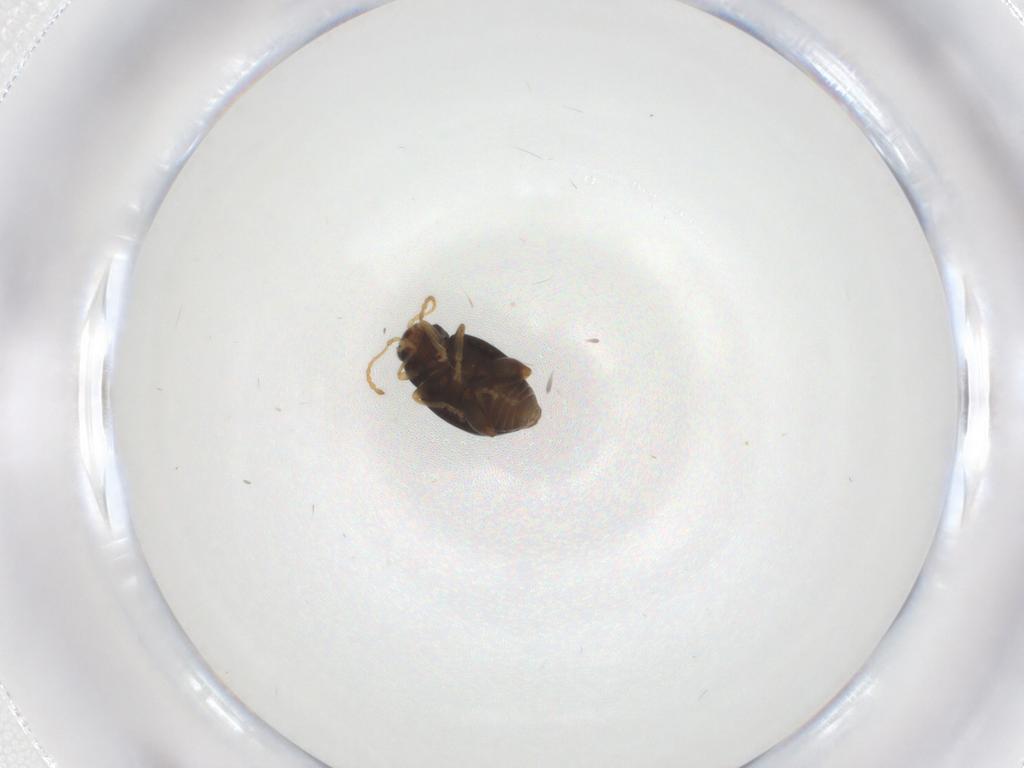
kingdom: Animalia
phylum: Arthropoda
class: Insecta
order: Coleoptera
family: Chrysomelidae
